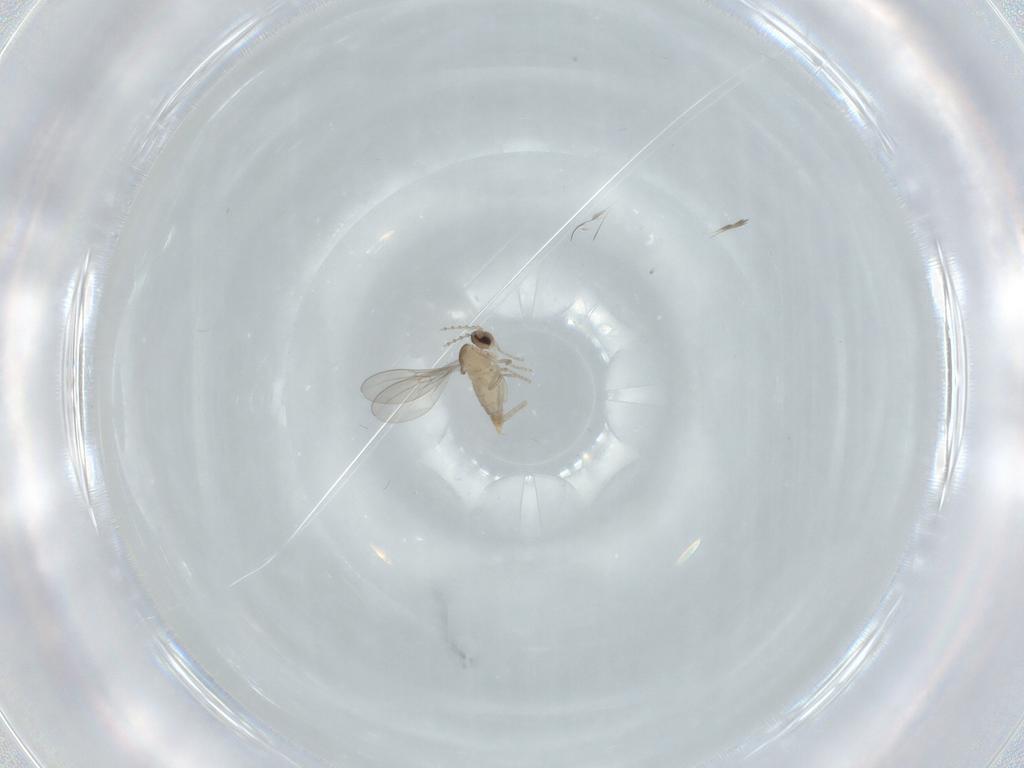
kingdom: Animalia
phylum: Arthropoda
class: Insecta
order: Diptera
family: Cecidomyiidae
